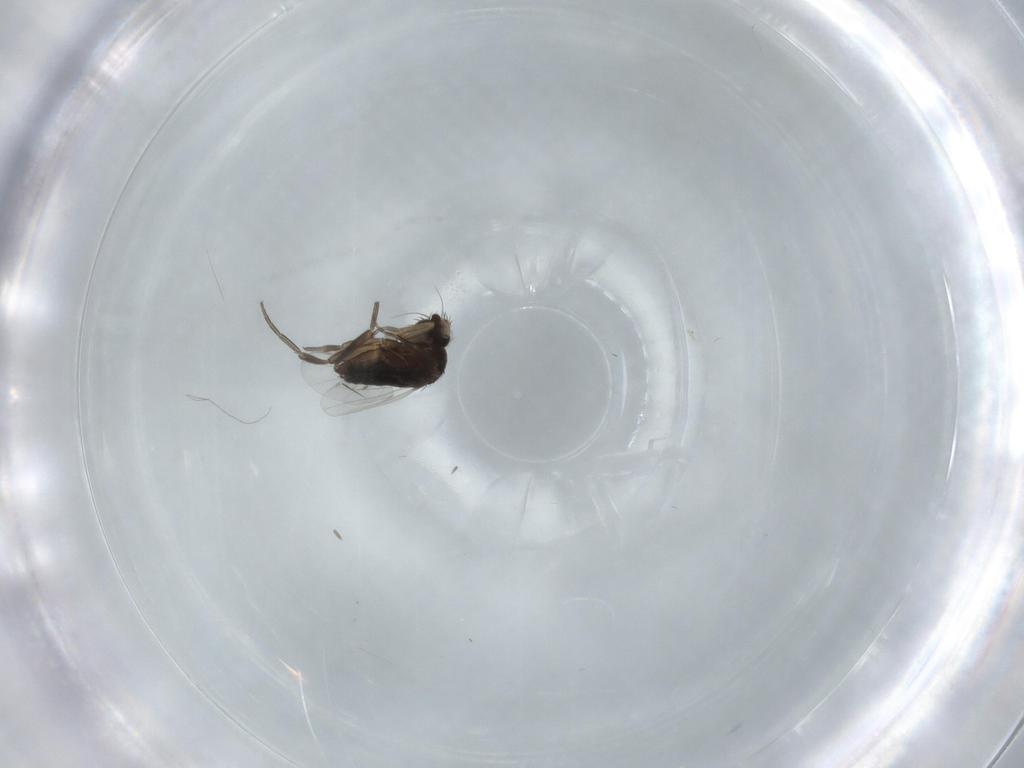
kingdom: Animalia
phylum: Arthropoda
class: Insecta
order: Diptera
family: Phoridae
